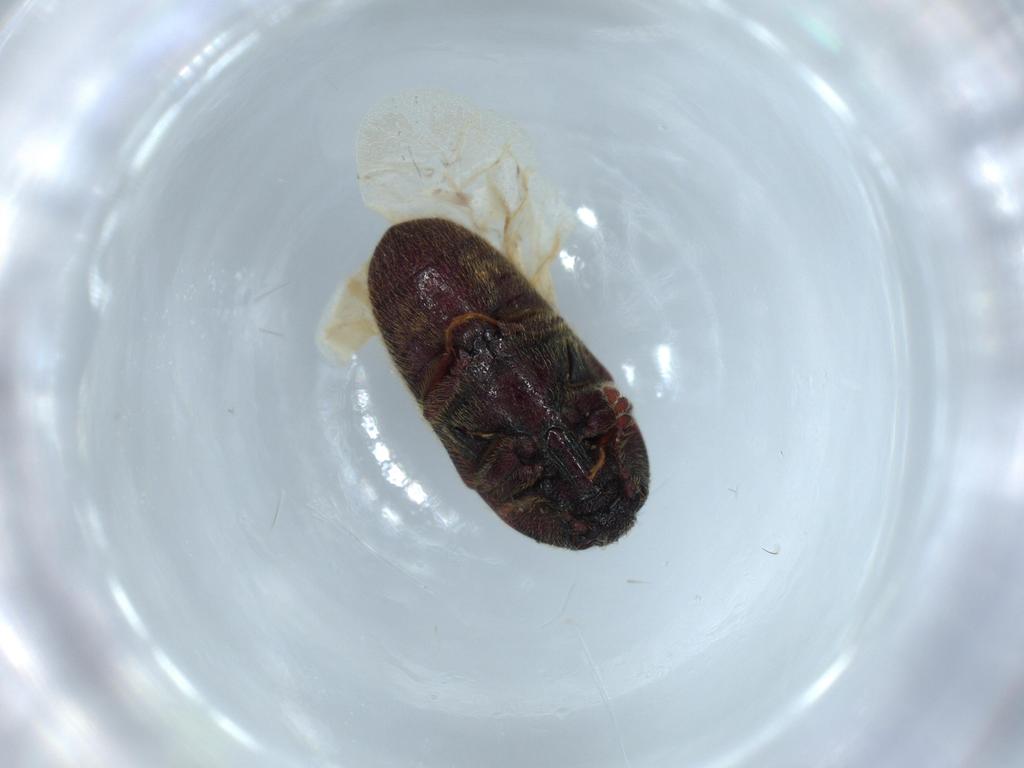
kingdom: Animalia
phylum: Arthropoda
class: Insecta
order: Coleoptera
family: Throscidae
